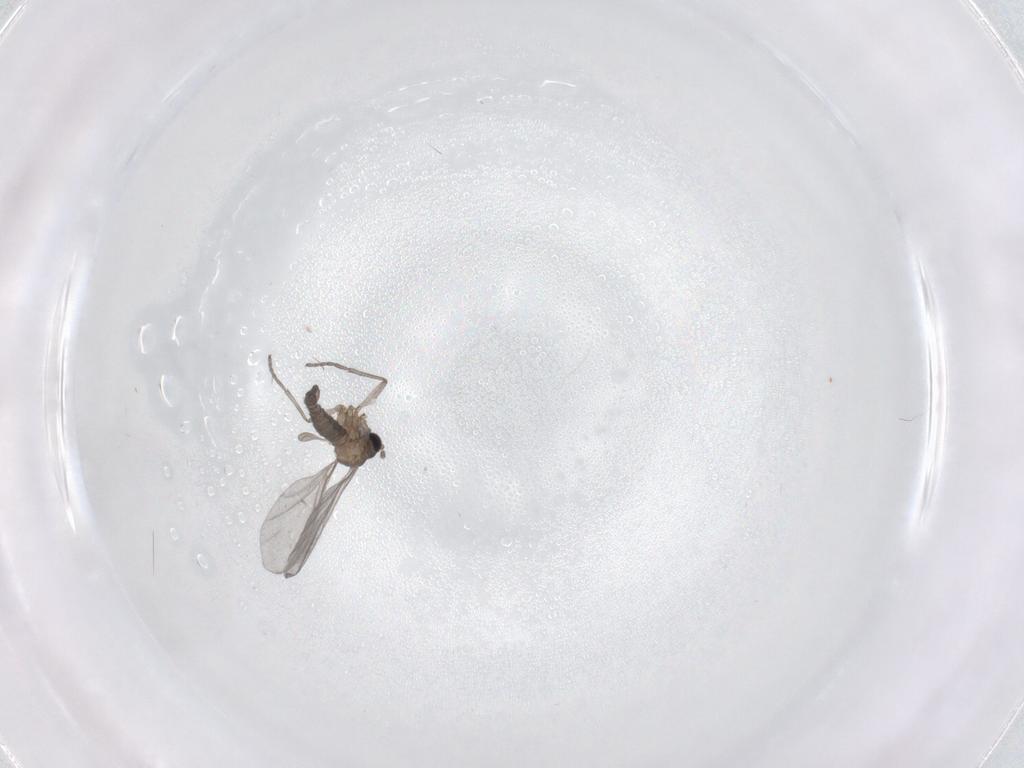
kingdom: Animalia
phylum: Arthropoda
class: Insecta
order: Diptera
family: Sciaridae
